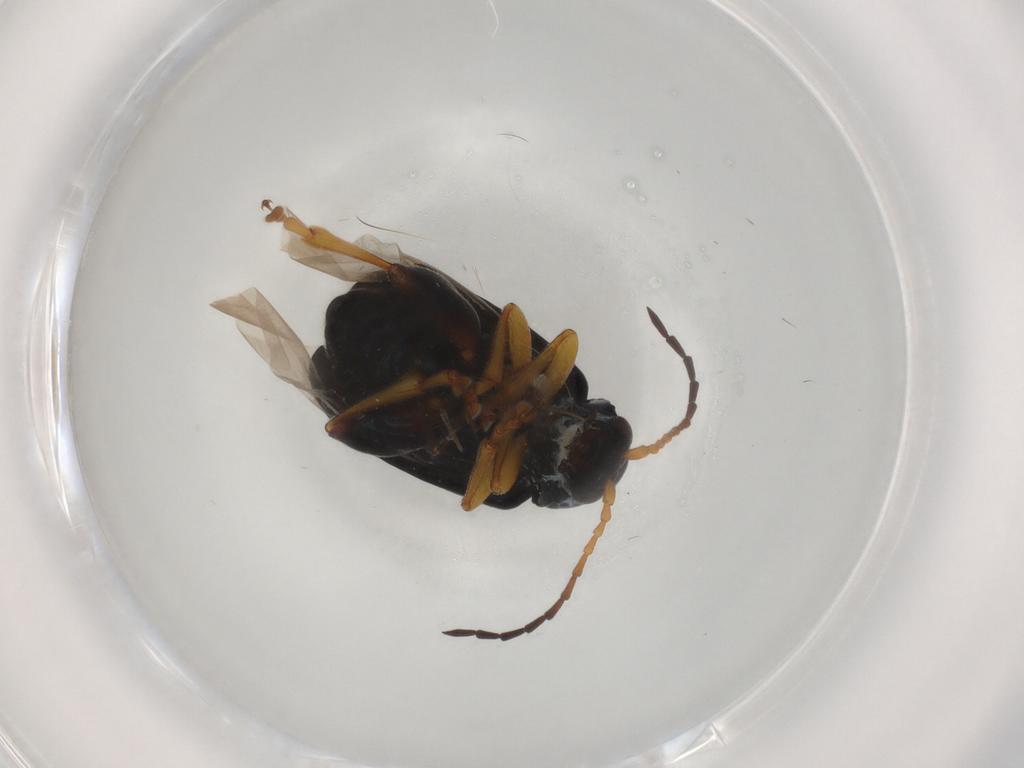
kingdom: Animalia
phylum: Arthropoda
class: Insecta
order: Coleoptera
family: Chrysomelidae
